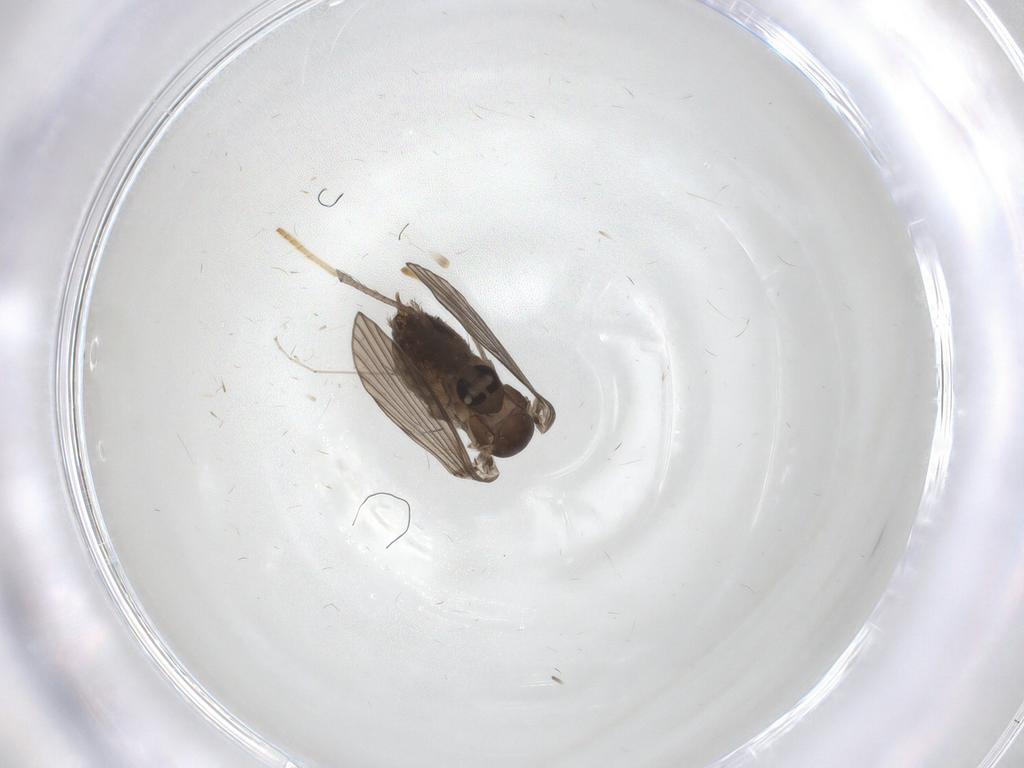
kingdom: Animalia
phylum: Arthropoda
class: Insecta
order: Diptera
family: Psychodidae
